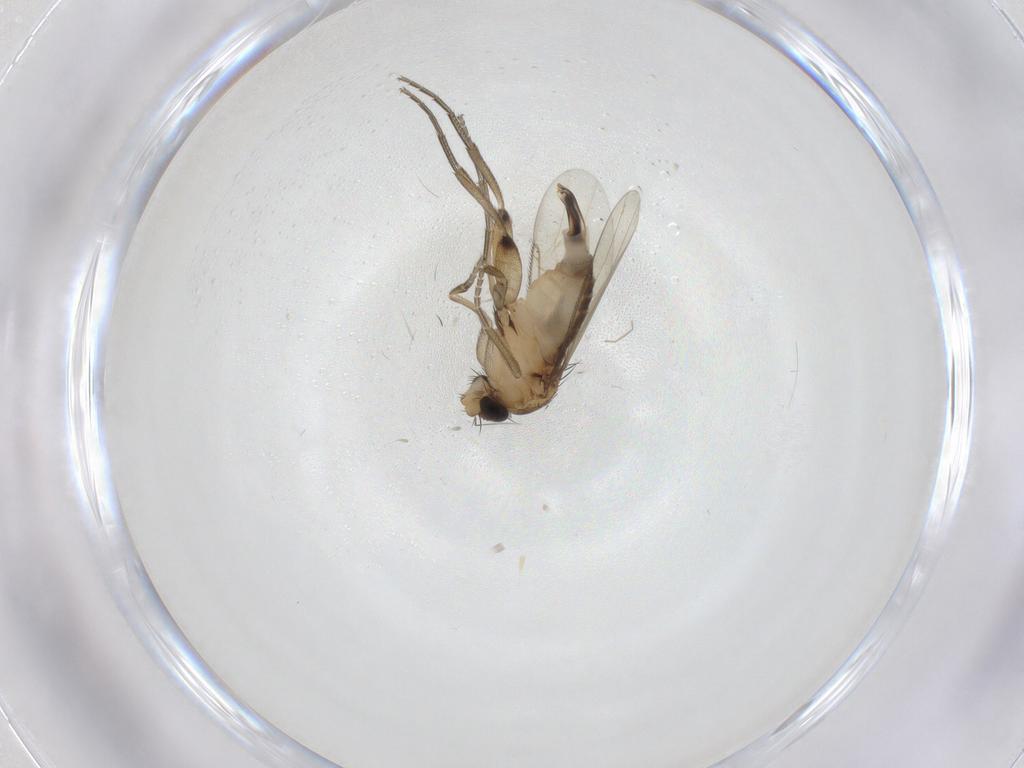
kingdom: Animalia
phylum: Arthropoda
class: Insecta
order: Diptera
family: Phoridae
